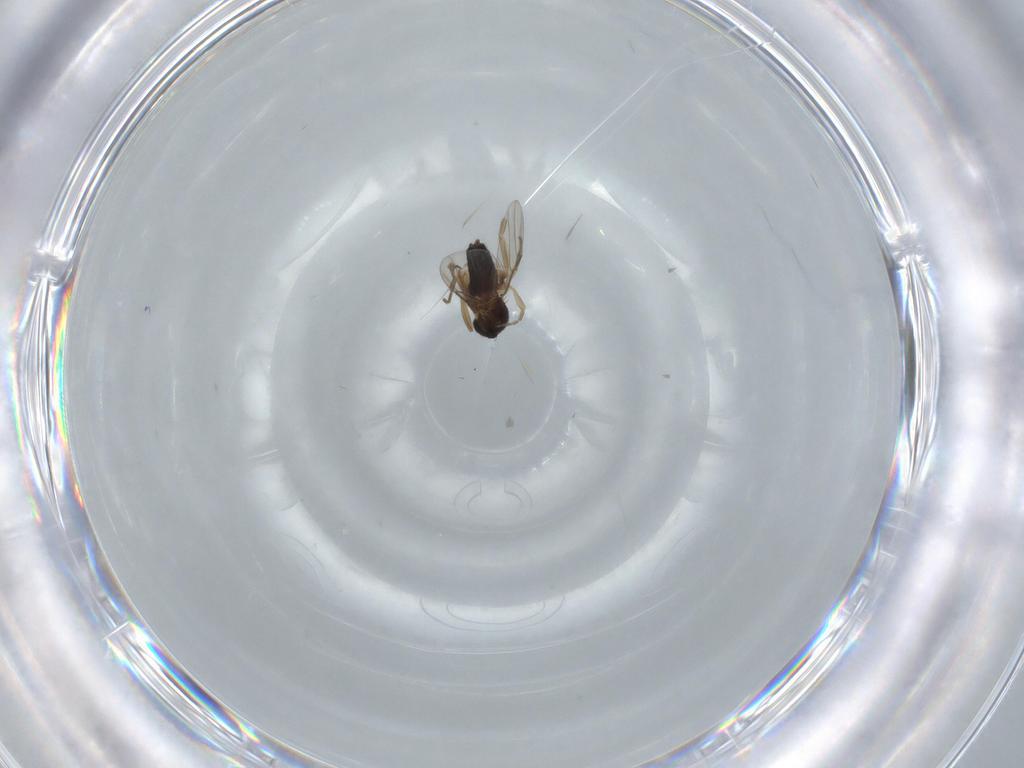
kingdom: Animalia
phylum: Arthropoda
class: Insecta
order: Diptera
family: Phoridae
